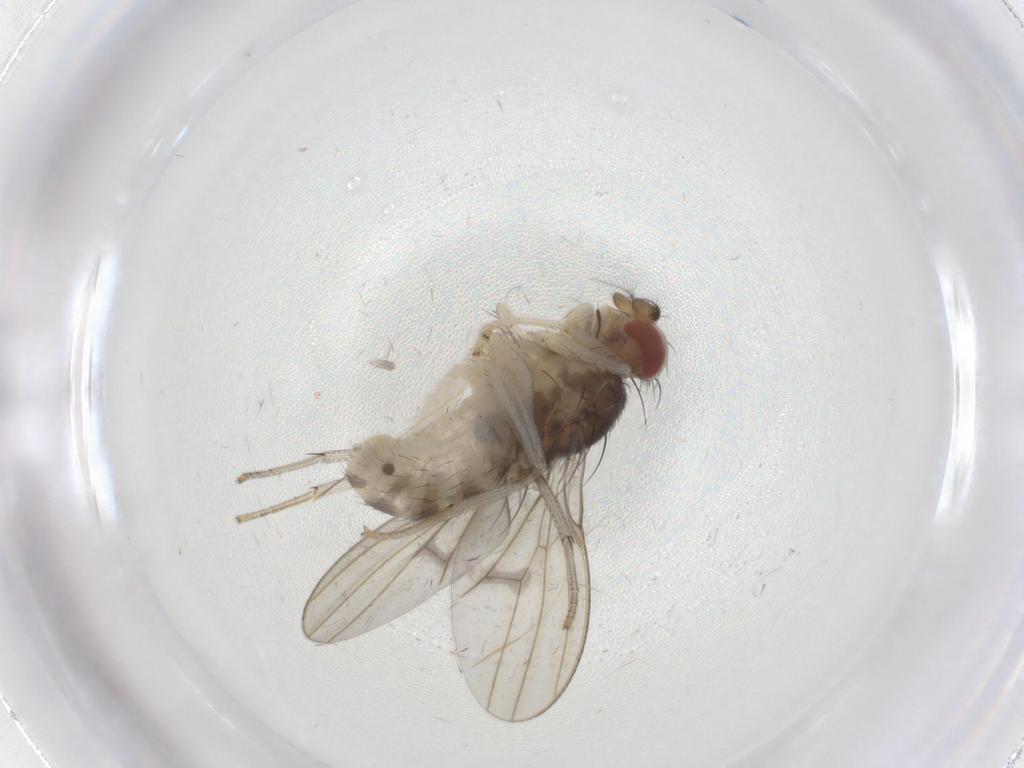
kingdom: Animalia
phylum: Arthropoda
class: Insecta
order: Diptera
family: Limoniidae
